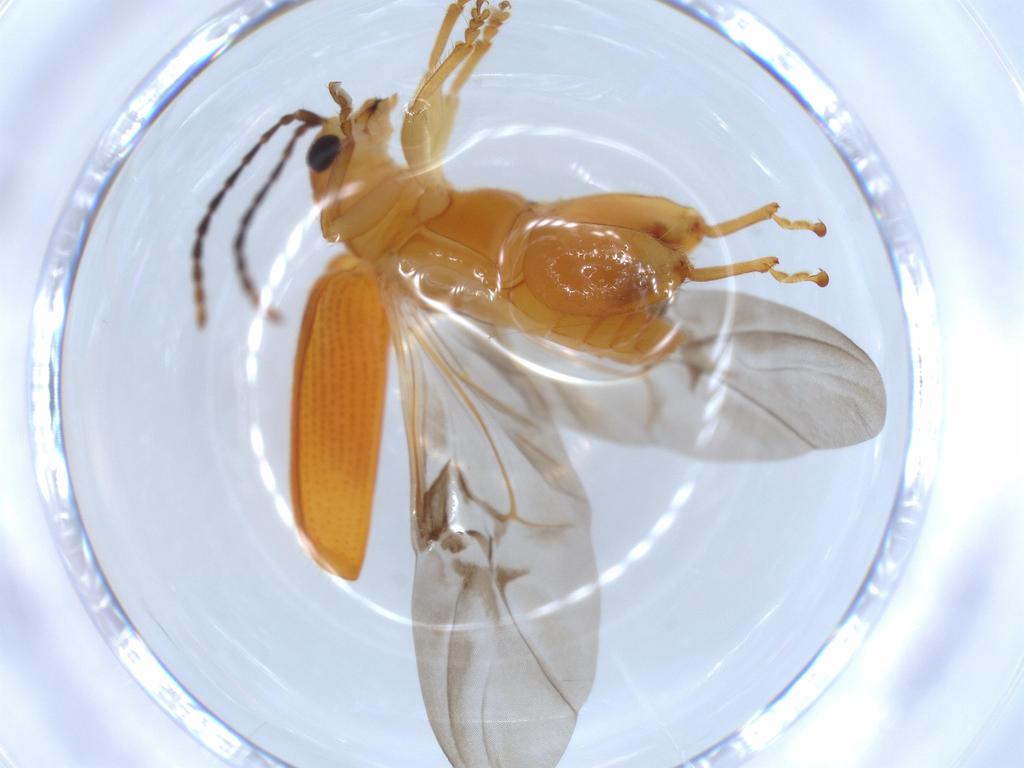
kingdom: Animalia
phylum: Arthropoda
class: Insecta
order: Coleoptera
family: Chrysomelidae
